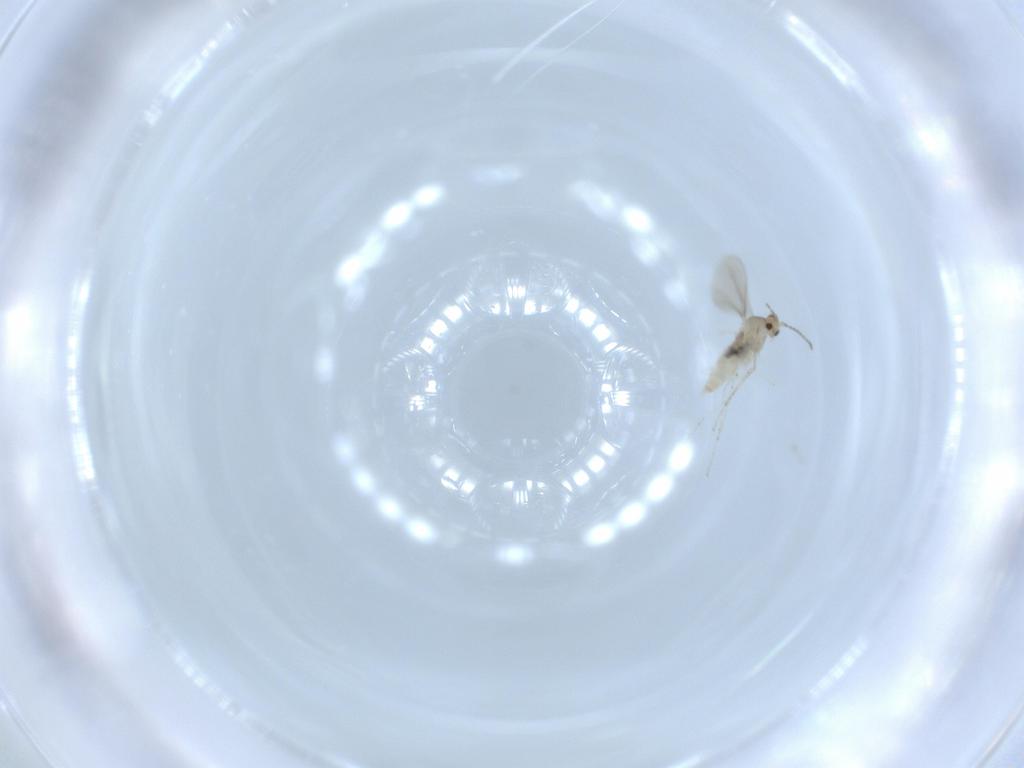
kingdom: Animalia
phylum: Arthropoda
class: Insecta
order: Diptera
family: Cecidomyiidae
